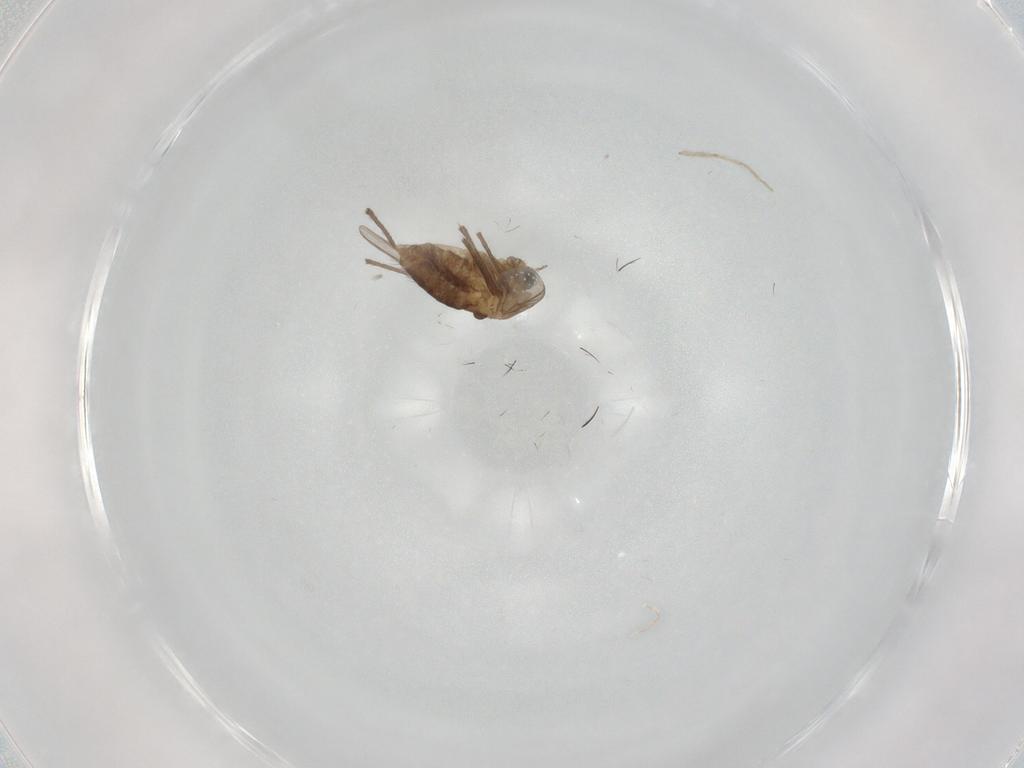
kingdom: Animalia
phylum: Arthropoda
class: Insecta
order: Diptera
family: Chironomidae
